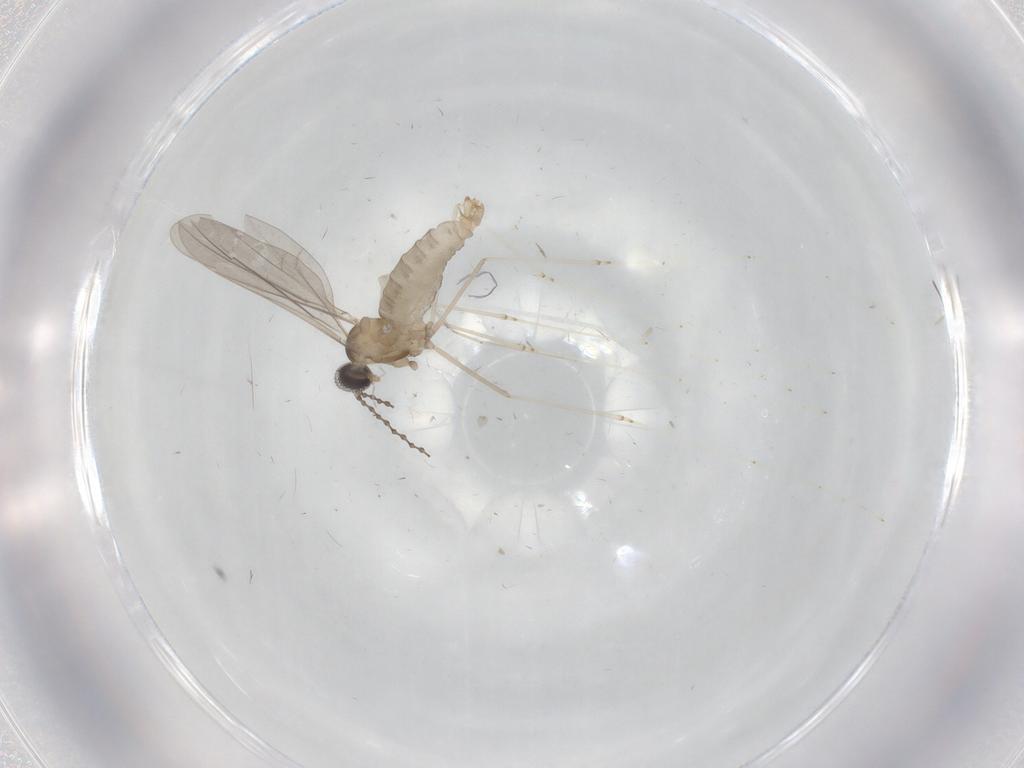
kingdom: Animalia
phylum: Arthropoda
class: Insecta
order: Diptera
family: Cecidomyiidae
